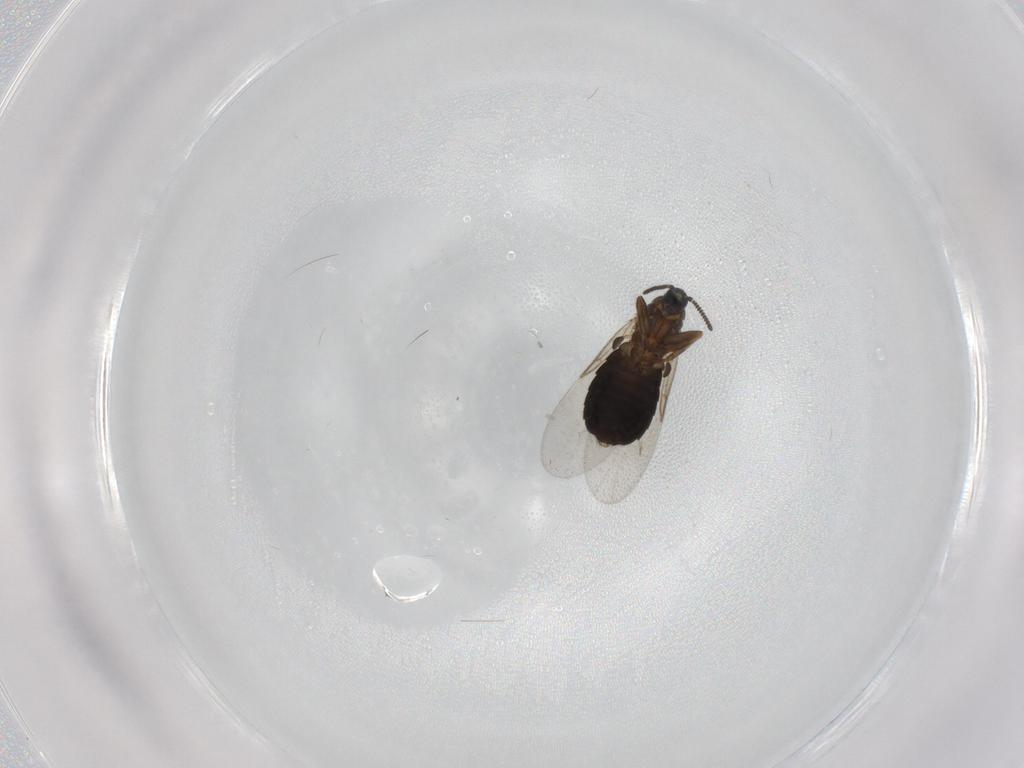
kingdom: Animalia
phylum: Arthropoda
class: Insecta
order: Diptera
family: Scatopsidae
